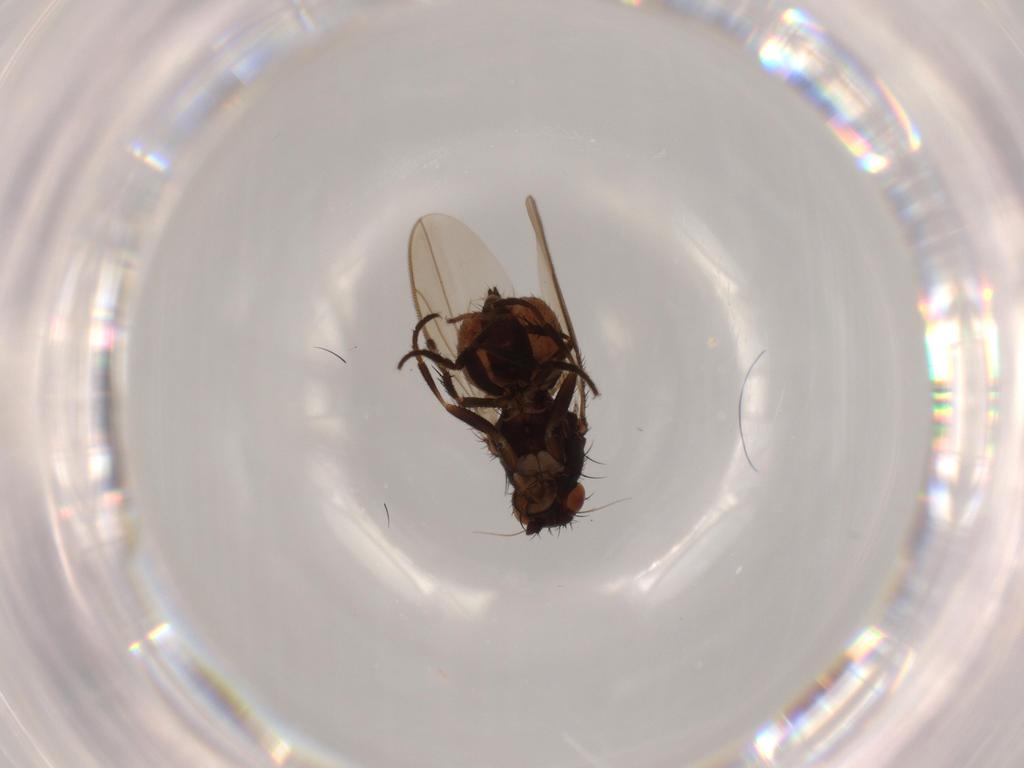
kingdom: Animalia
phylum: Arthropoda
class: Insecta
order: Diptera
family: Sphaeroceridae
